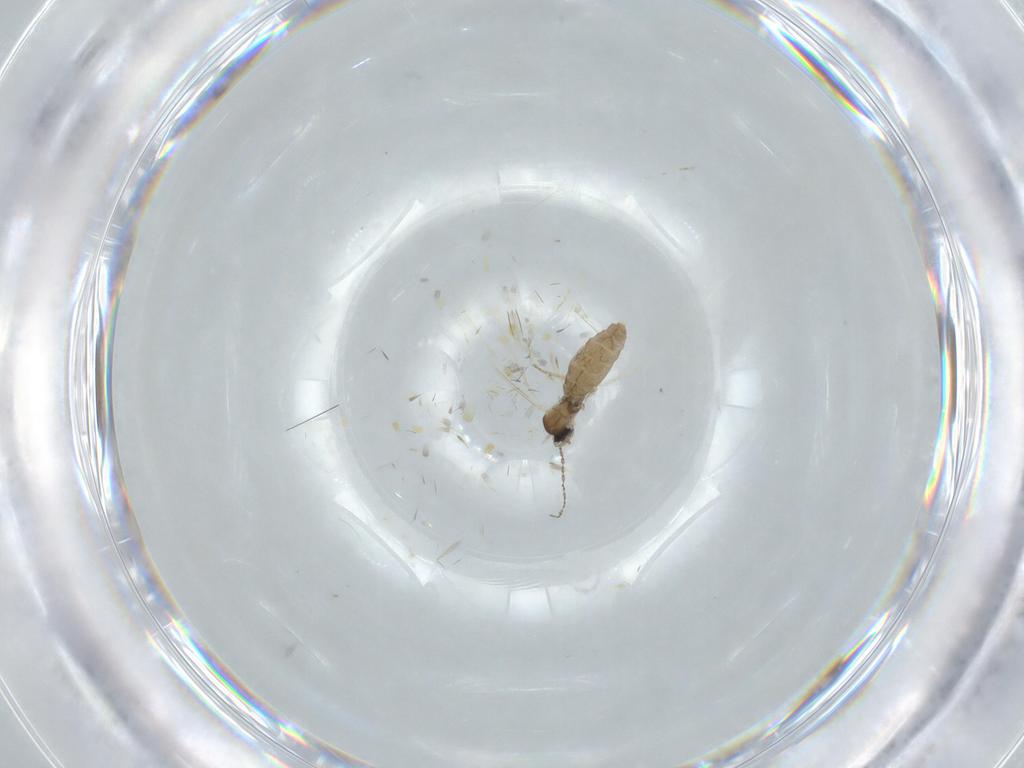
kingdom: Animalia
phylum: Arthropoda
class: Insecta
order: Diptera
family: Cecidomyiidae
